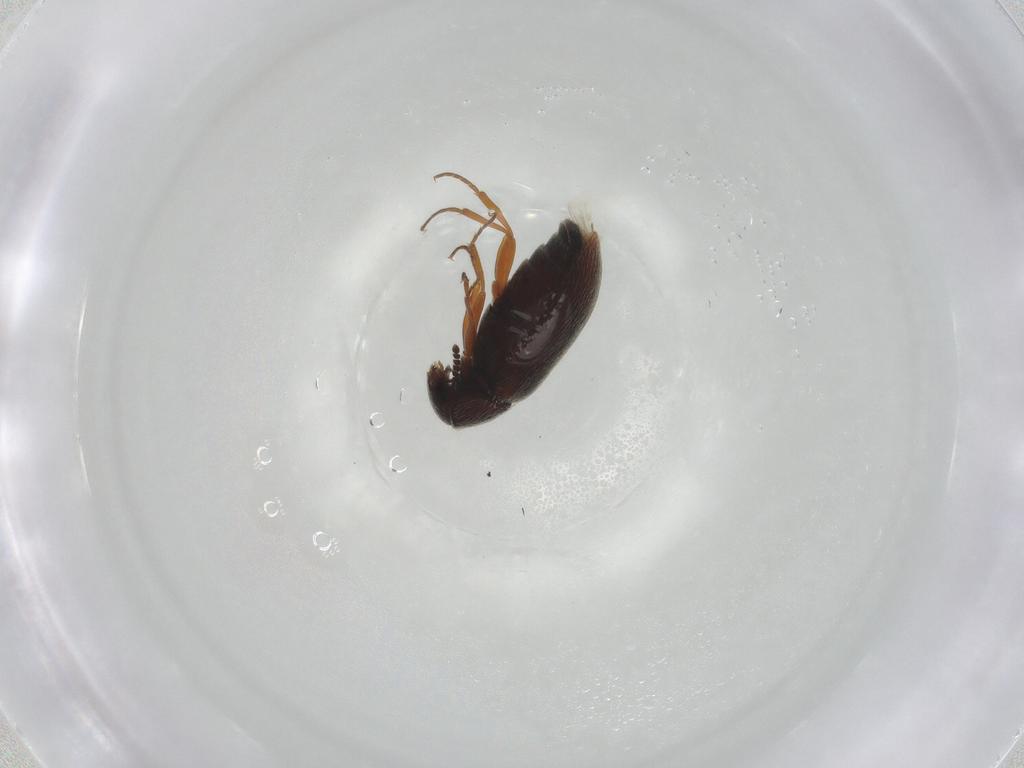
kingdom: Animalia
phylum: Arthropoda
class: Insecta
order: Coleoptera
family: Rhadalidae
